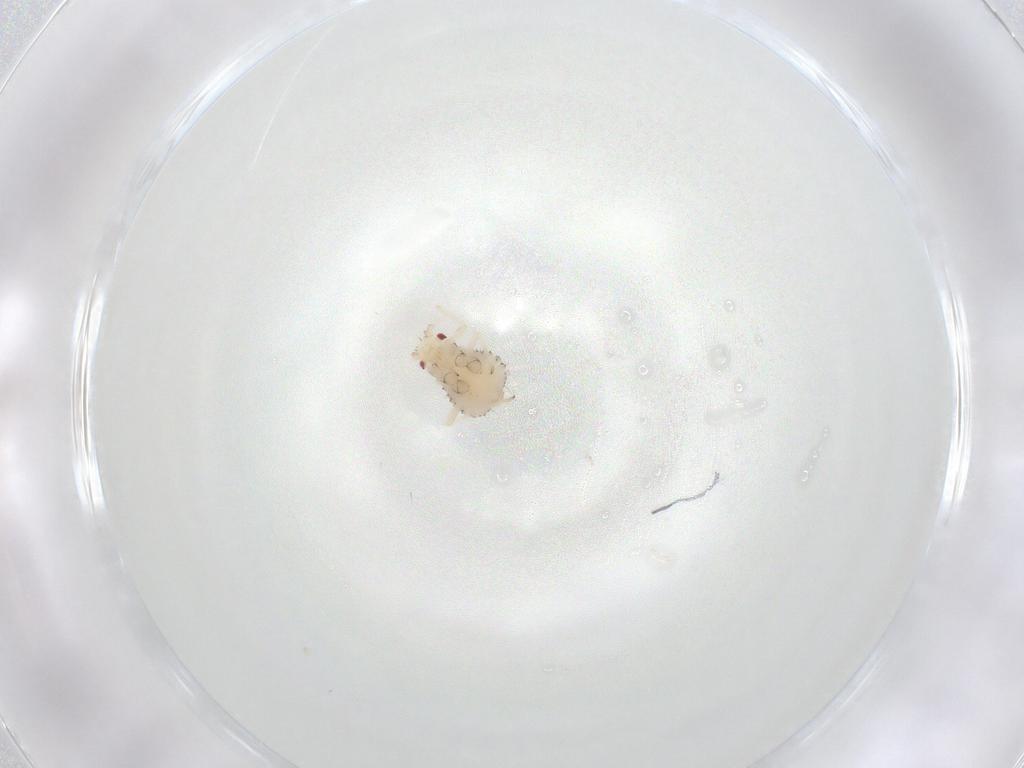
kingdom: Animalia
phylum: Arthropoda
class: Insecta
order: Hemiptera
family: Aphididae
